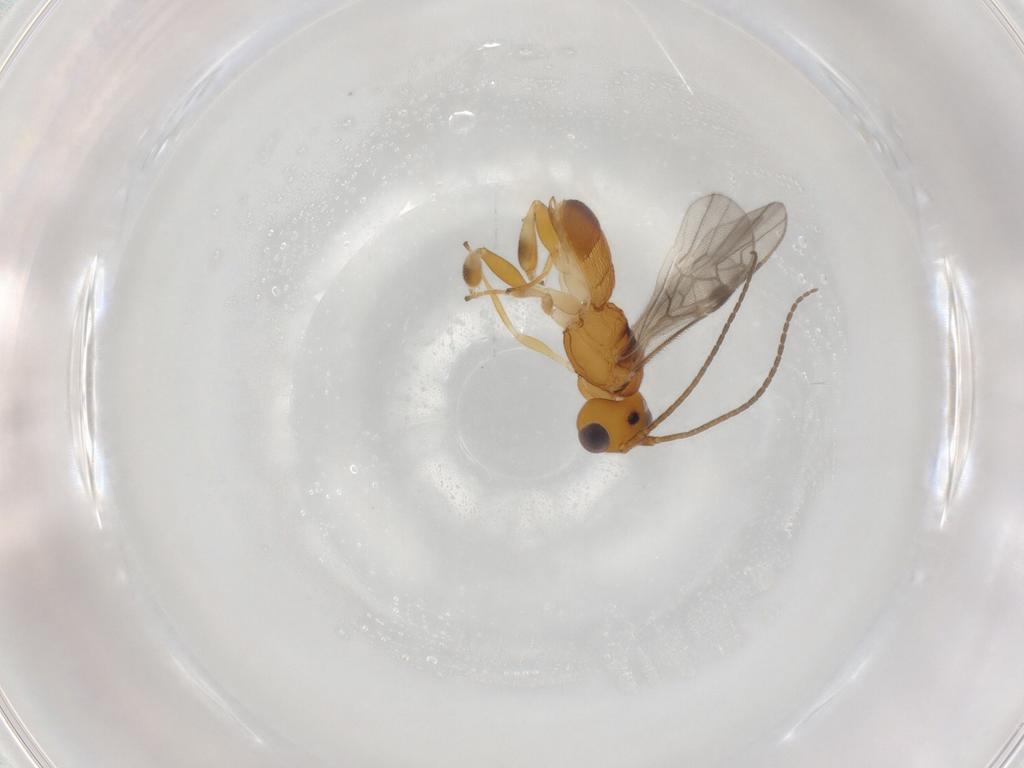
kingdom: Animalia
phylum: Arthropoda
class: Insecta
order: Hymenoptera
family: Braconidae
